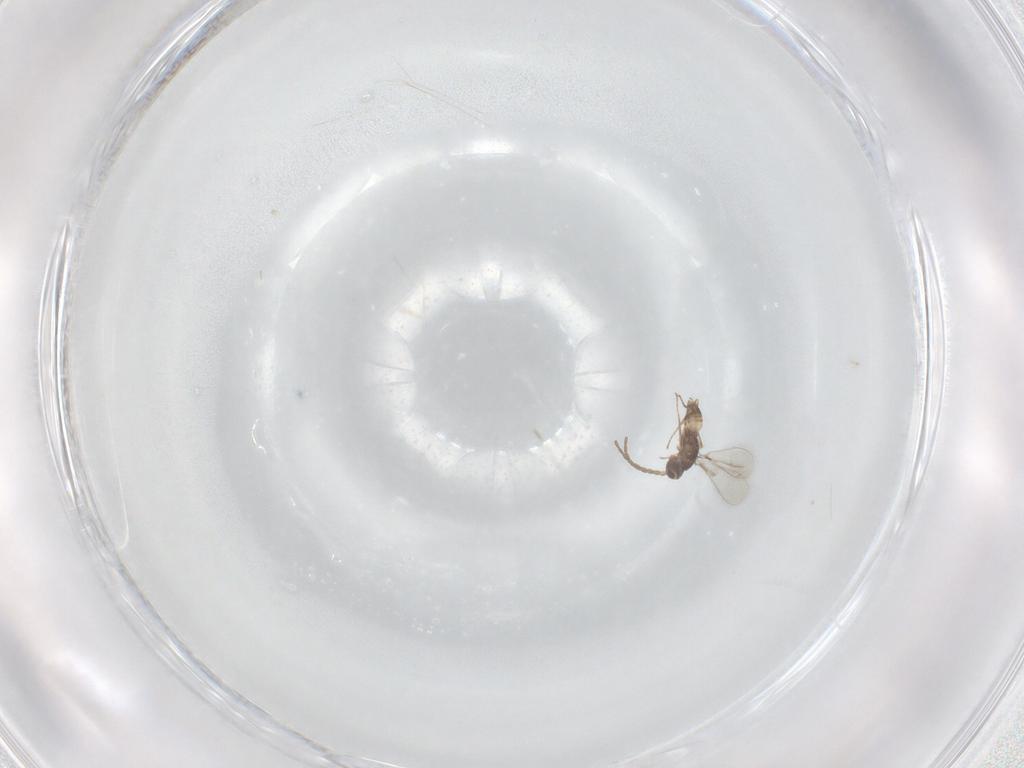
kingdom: Animalia
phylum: Arthropoda
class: Insecta
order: Hymenoptera
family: Mymaridae
